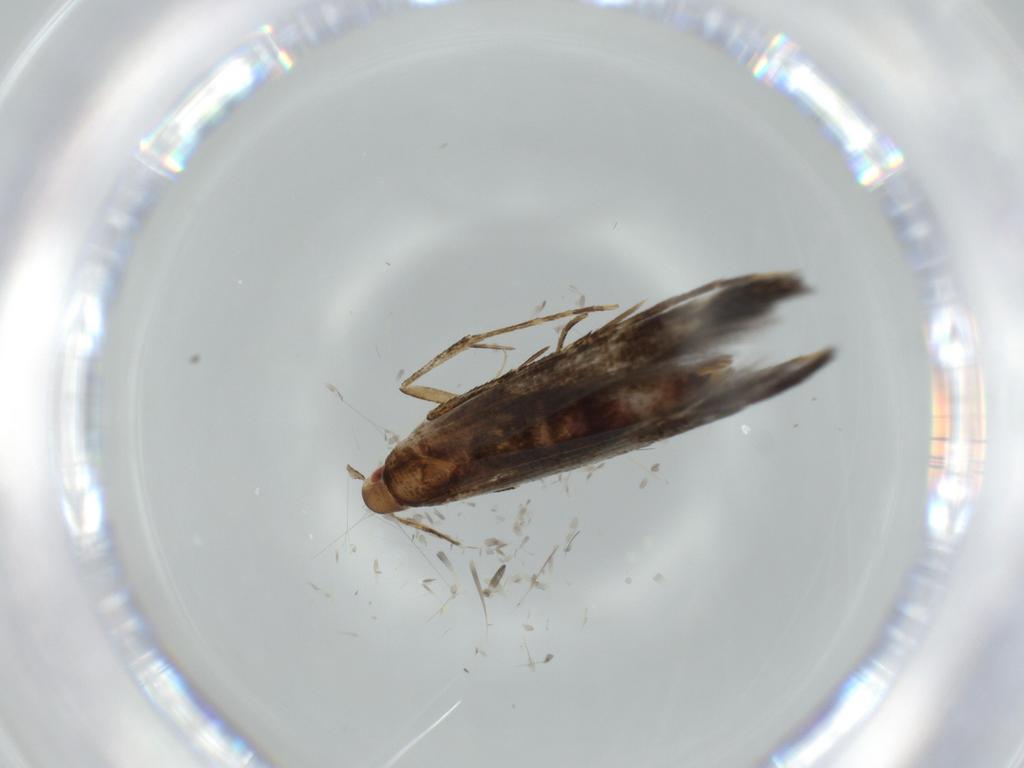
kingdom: Animalia
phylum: Arthropoda
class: Insecta
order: Lepidoptera
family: Cosmopterigidae
